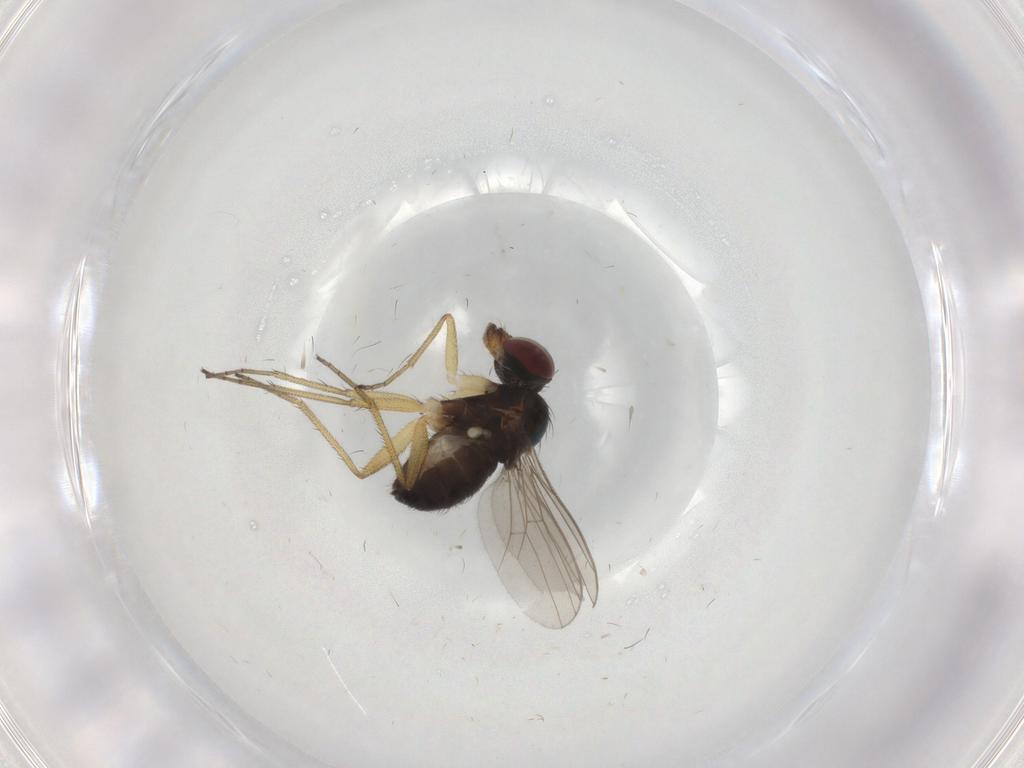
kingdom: Animalia
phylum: Arthropoda
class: Insecta
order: Diptera
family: Dolichopodidae
